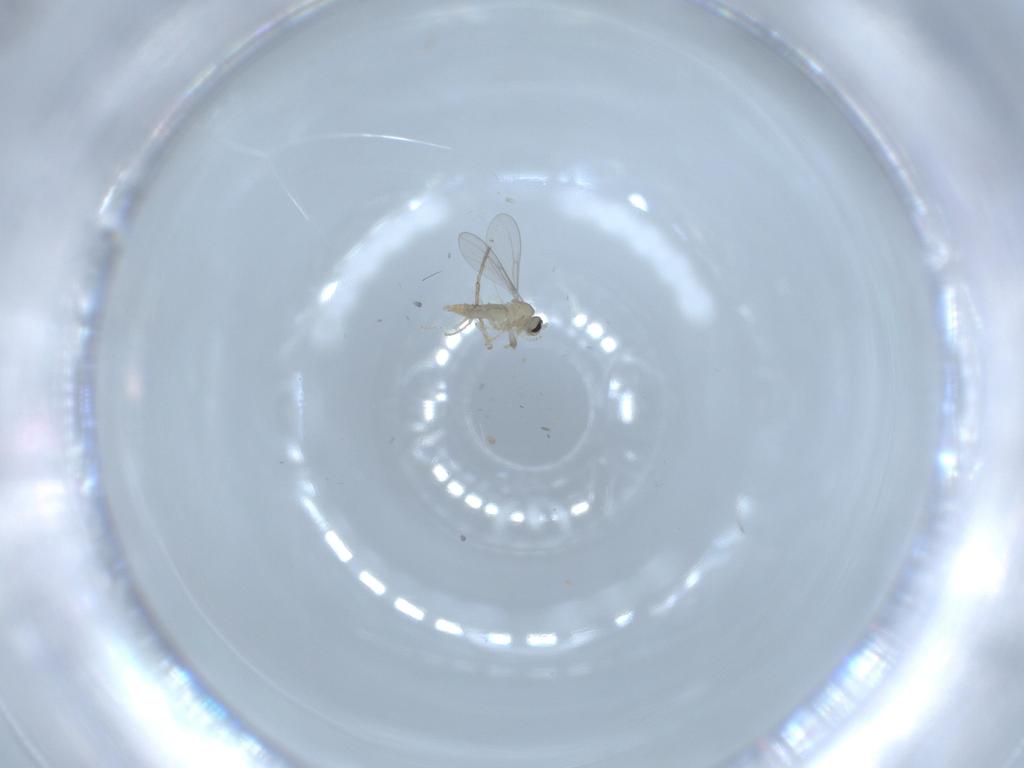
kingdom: Animalia
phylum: Arthropoda
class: Insecta
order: Diptera
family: Cecidomyiidae
